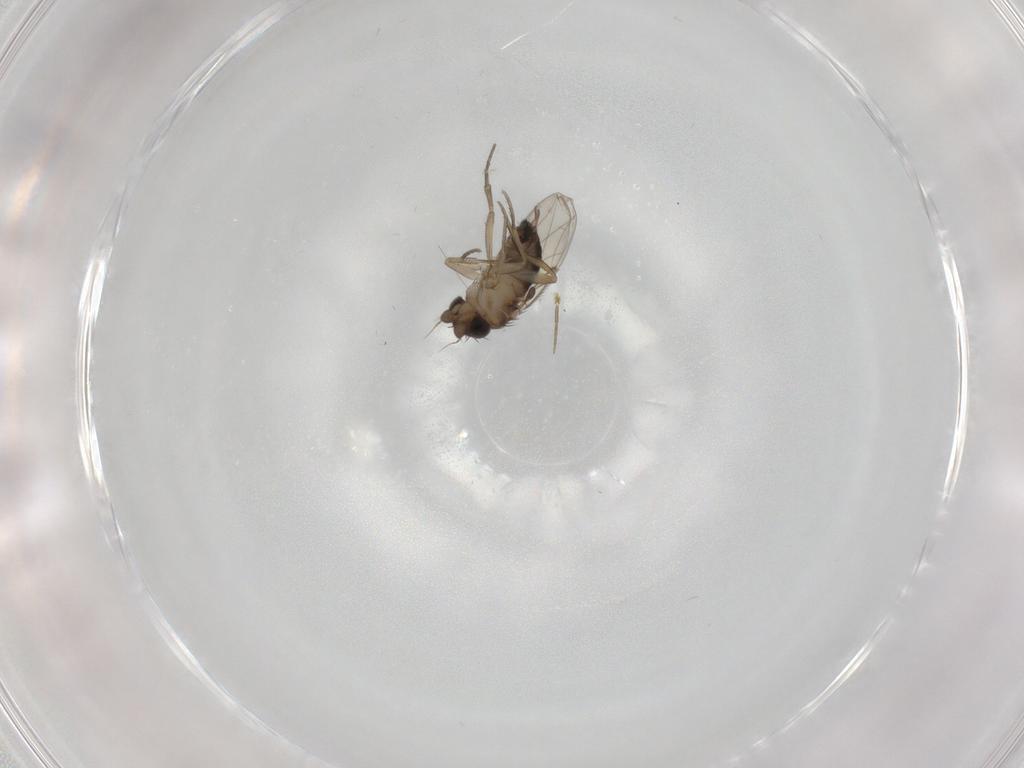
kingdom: Animalia
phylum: Arthropoda
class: Insecta
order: Diptera
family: Phoridae
